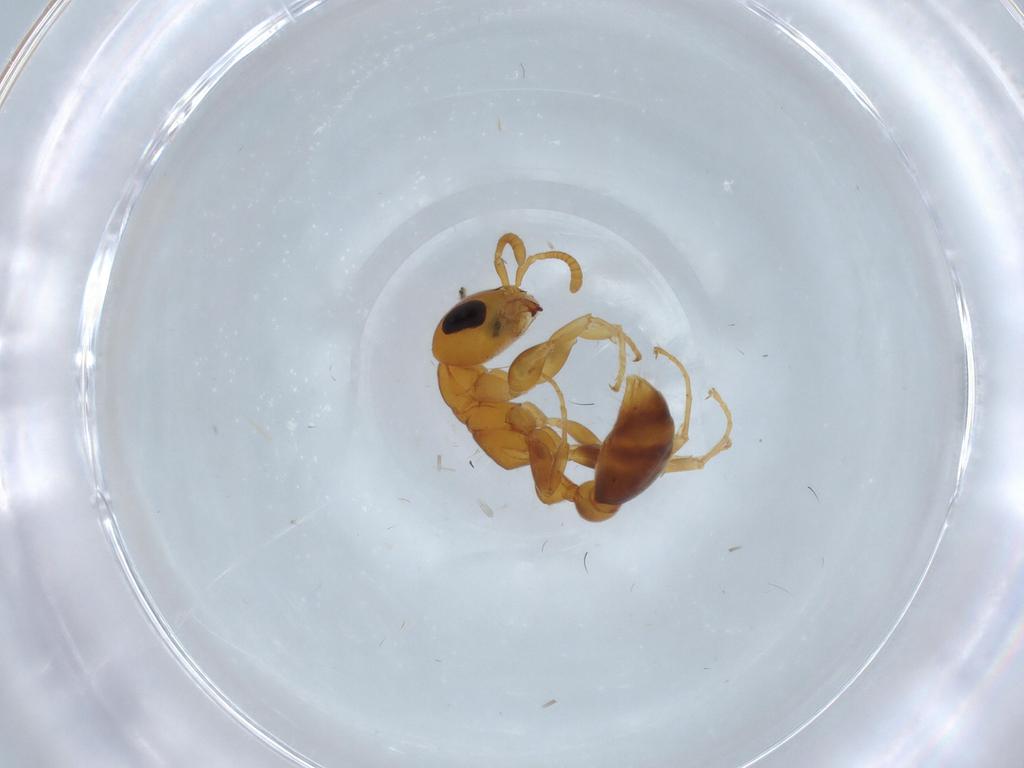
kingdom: Animalia
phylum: Arthropoda
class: Insecta
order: Hymenoptera
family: Formicidae
